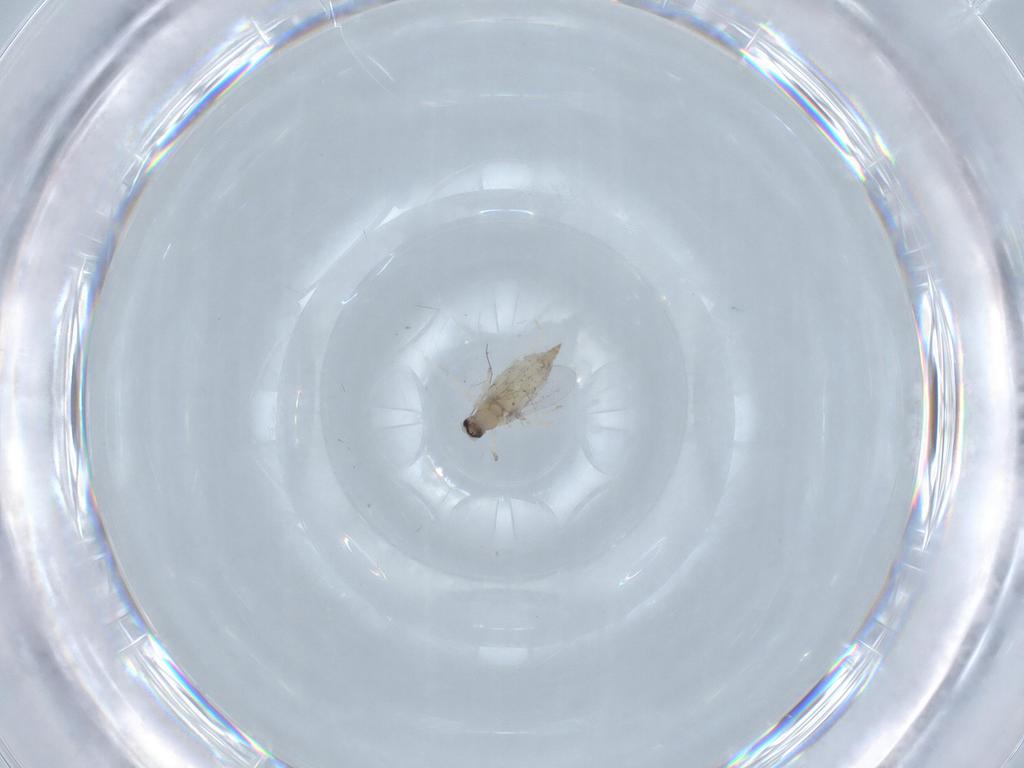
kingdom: Animalia
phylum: Arthropoda
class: Insecta
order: Diptera
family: Cecidomyiidae
